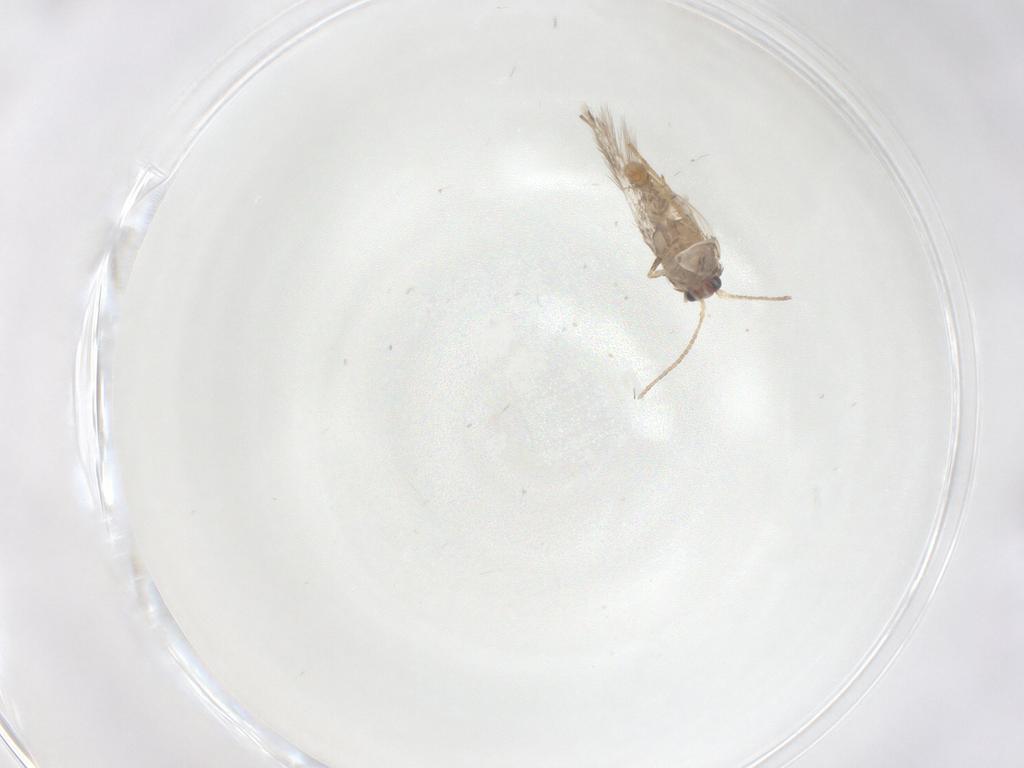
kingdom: Animalia
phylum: Arthropoda
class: Insecta
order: Lepidoptera
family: Nepticulidae
